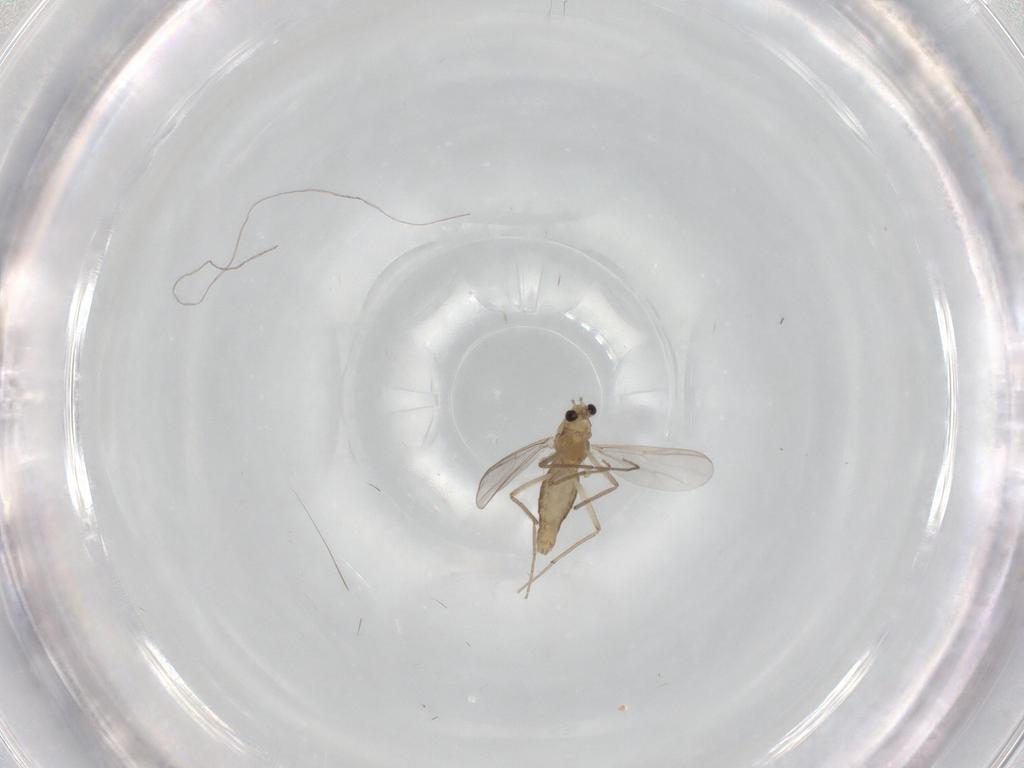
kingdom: Animalia
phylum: Arthropoda
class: Insecta
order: Diptera
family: Chironomidae
